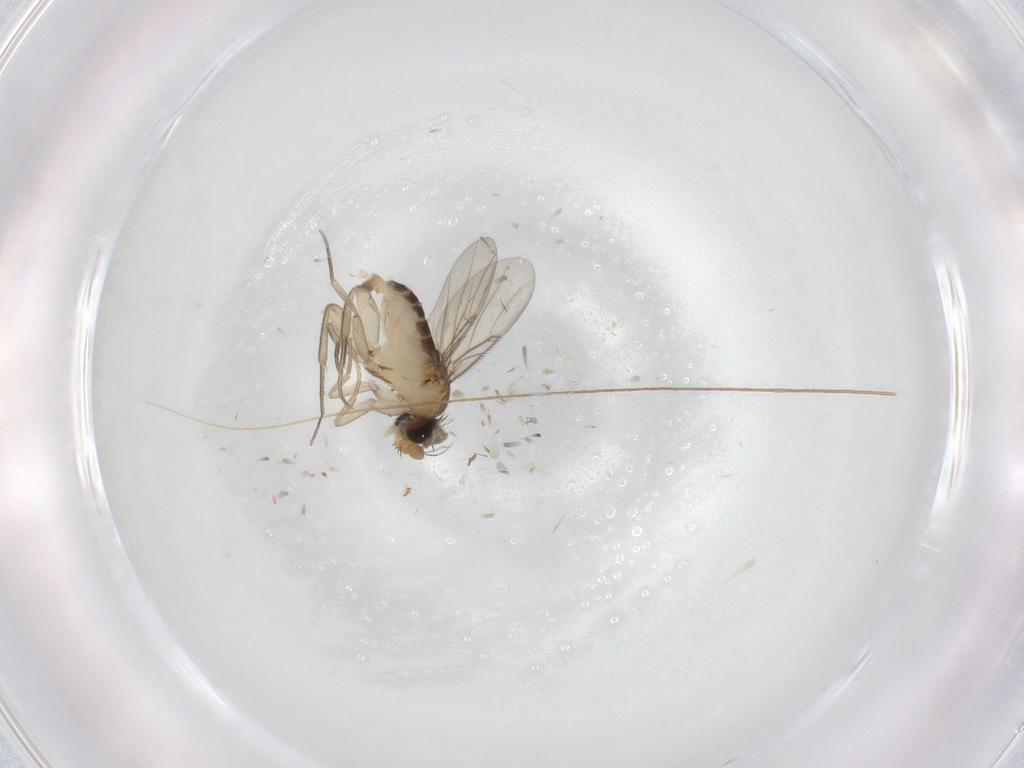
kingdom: Animalia
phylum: Arthropoda
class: Insecta
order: Diptera
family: Phoridae
